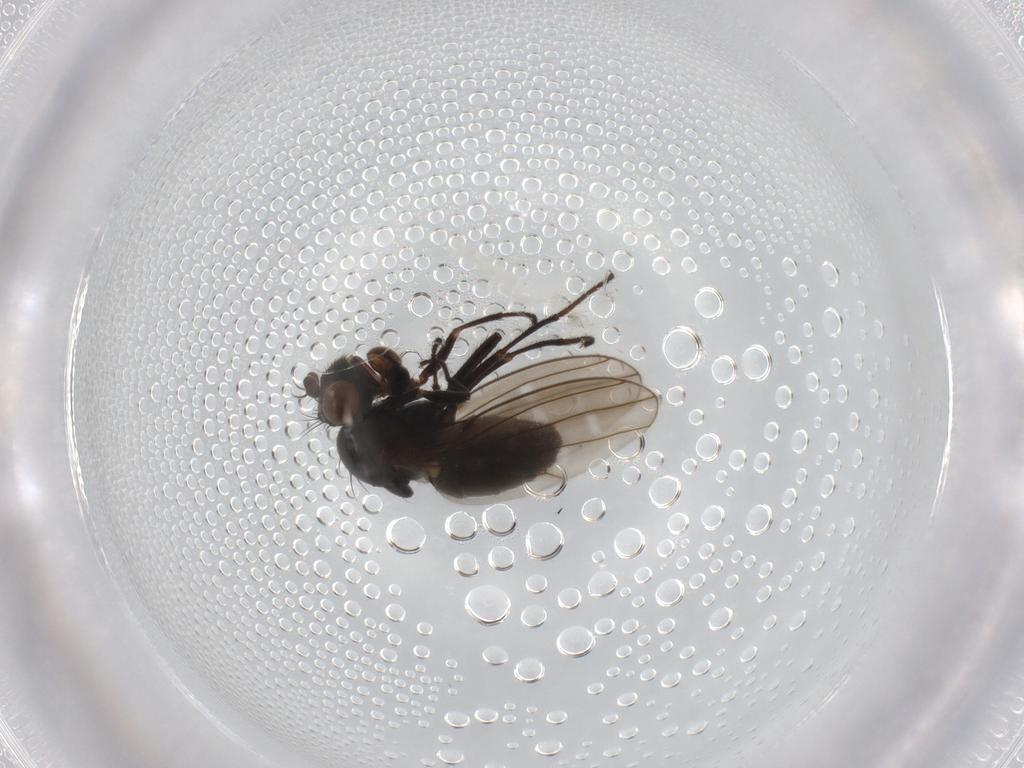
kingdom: Animalia
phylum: Arthropoda
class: Insecta
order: Diptera
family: Ephydridae
